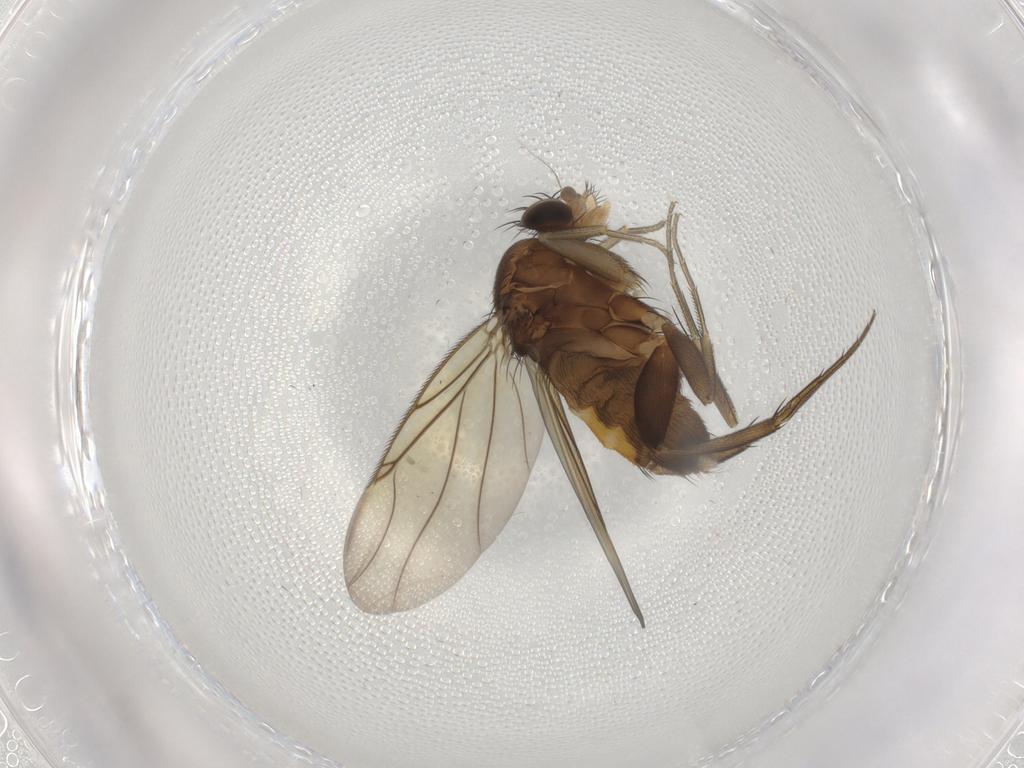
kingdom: Animalia
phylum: Arthropoda
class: Insecta
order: Diptera
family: Phoridae
